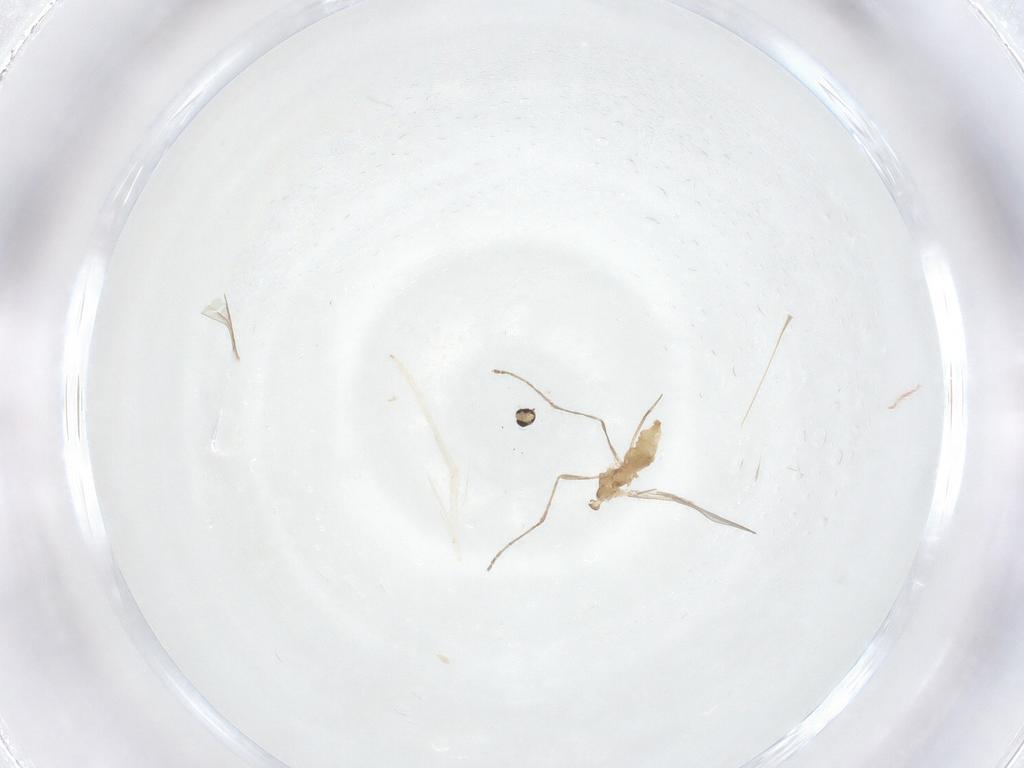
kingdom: Animalia
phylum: Arthropoda
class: Insecta
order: Diptera
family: Cecidomyiidae
